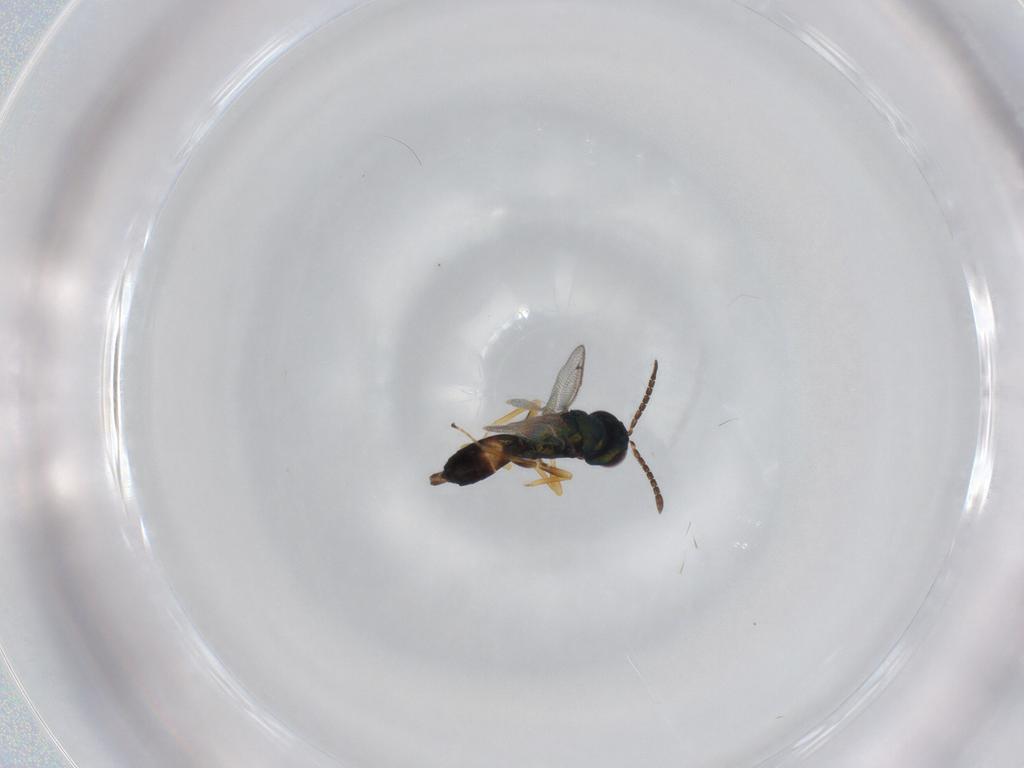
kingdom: Animalia
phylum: Arthropoda
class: Insecta
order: Hymenoptera
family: Pteromalidae
